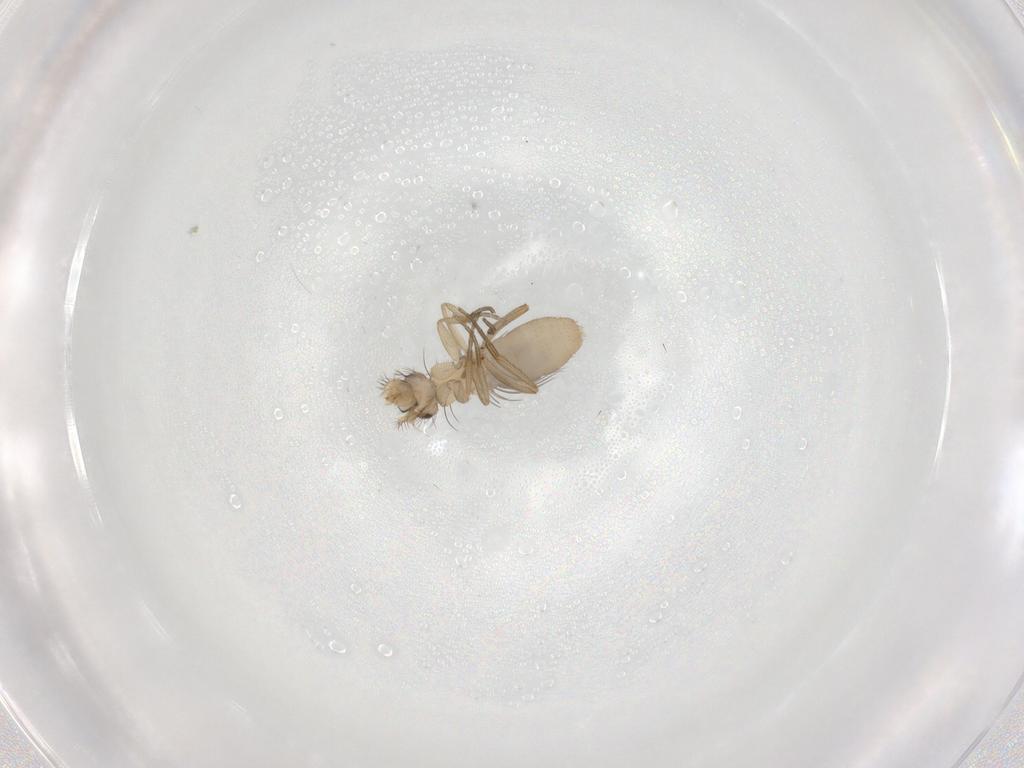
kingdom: Animalia
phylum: Arthropoda
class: Insecta
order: Diptera
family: Phoridae
